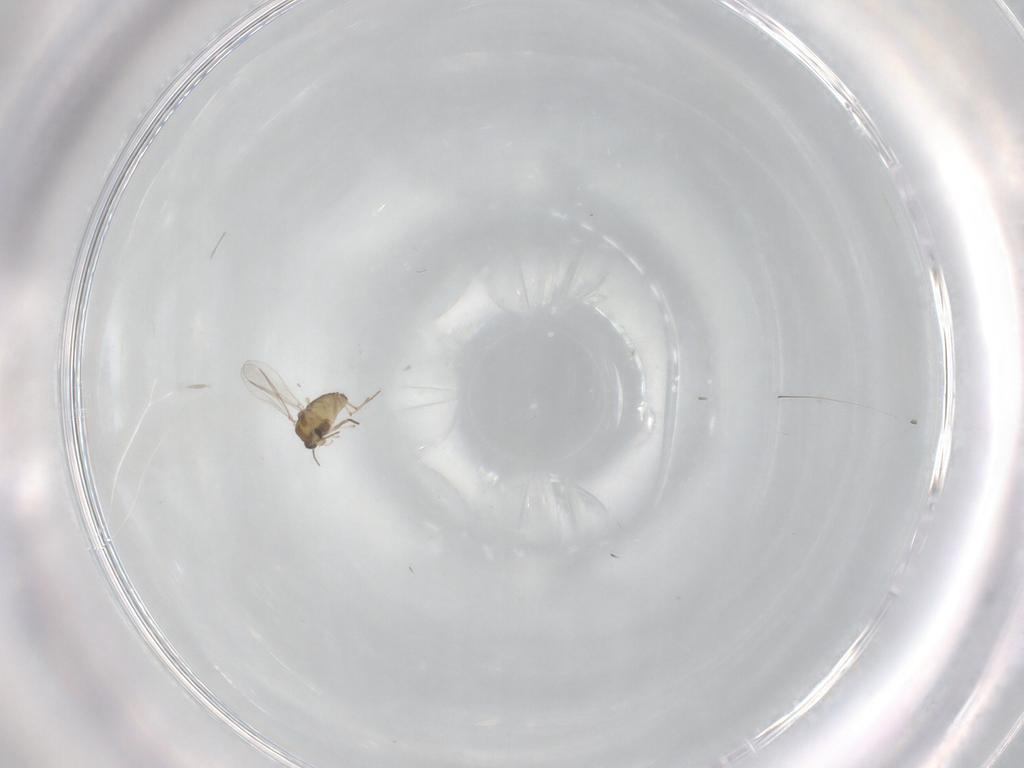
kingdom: Animalia
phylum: Arthropoda
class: Insecta
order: Diptera
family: Chironomidae
